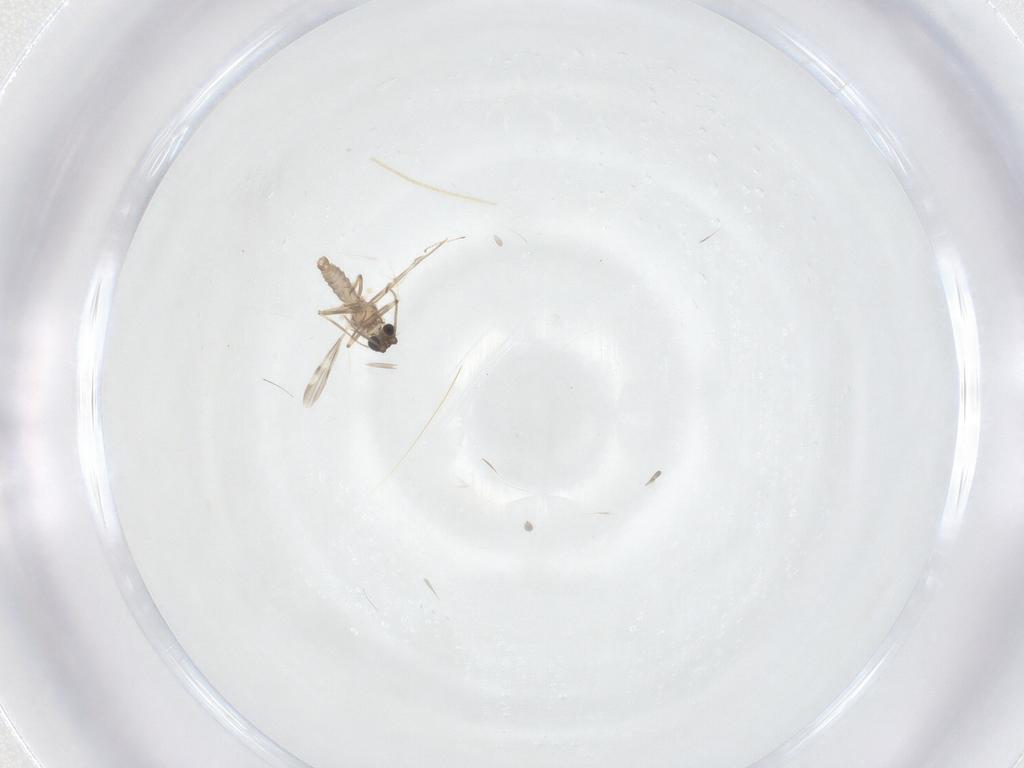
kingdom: Animalia
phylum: Arthropoda
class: Insecta
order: Diptera
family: Ceratopogonidae
